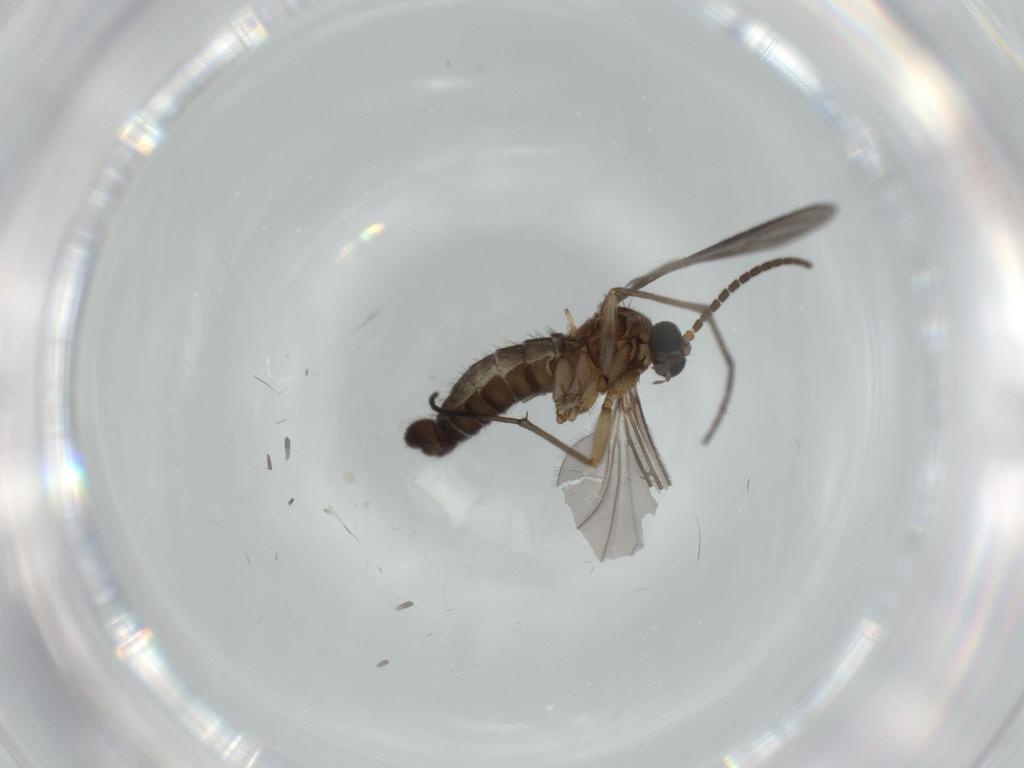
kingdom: Animalia
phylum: Arthropoda
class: Insecta
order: Diptera
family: Sciaridae
